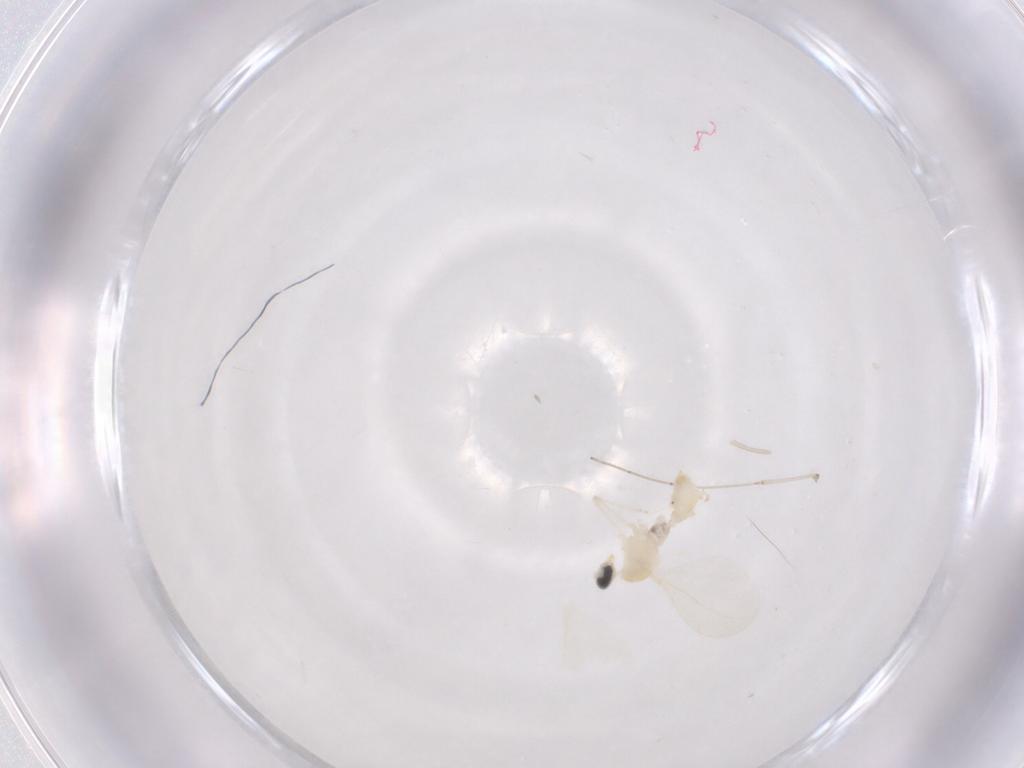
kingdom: Animalia
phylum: Arthropoda
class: Insecta
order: Diptera
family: Cecidomyiidae
